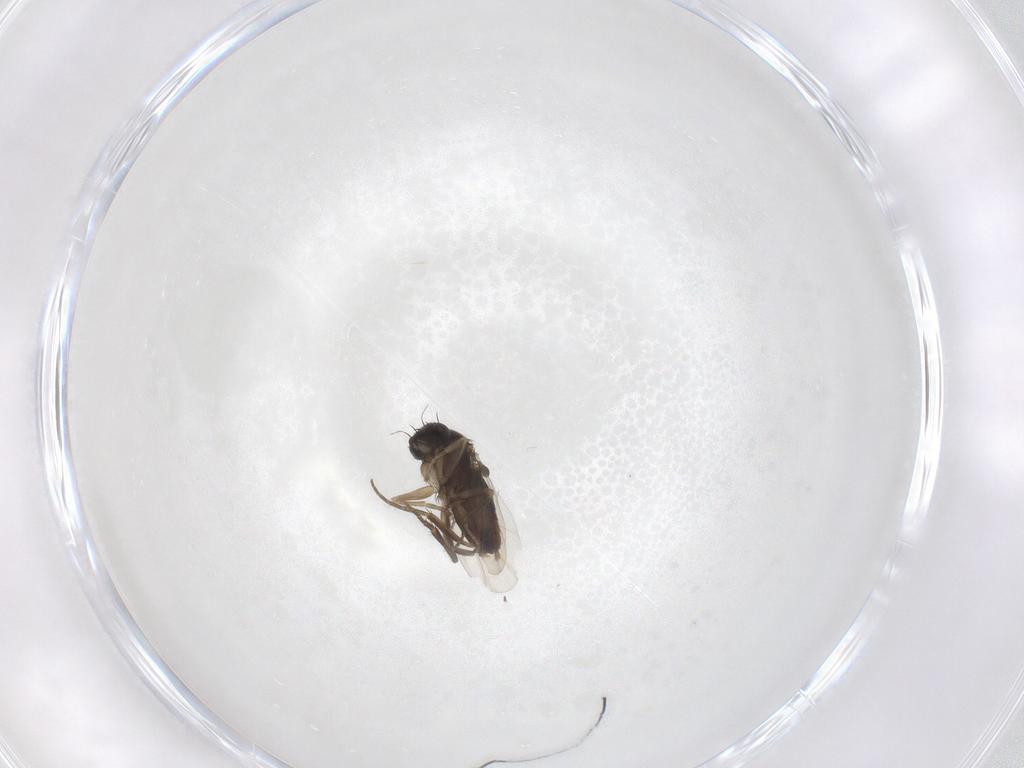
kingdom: Animalia
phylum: Arthropoda
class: Insecta
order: Diptera
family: Phoridae
